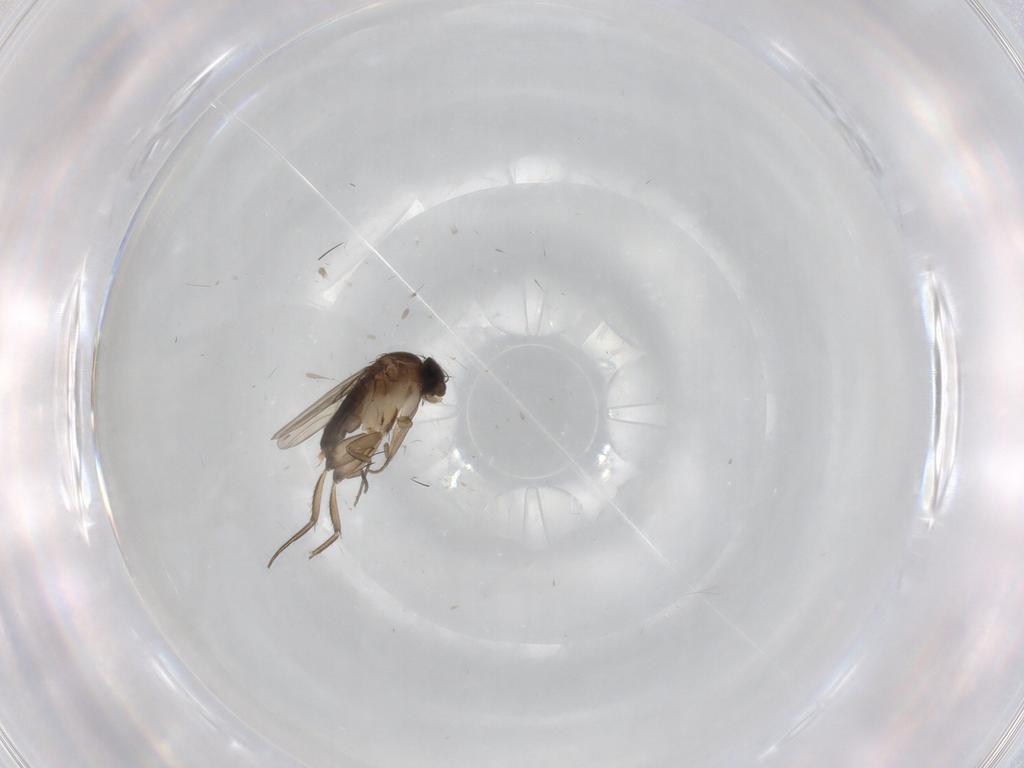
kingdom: Animalia
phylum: Arthropoda
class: Insecta
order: Diptera
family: Phoridae
